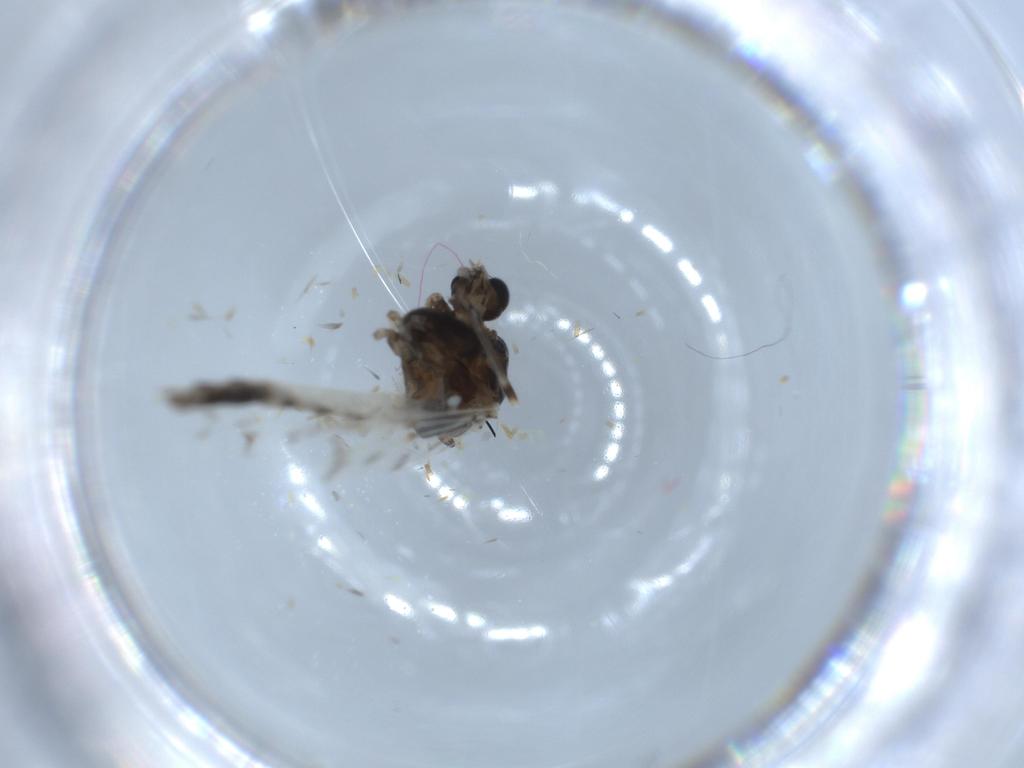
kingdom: Animalia
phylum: Arthropoda
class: Insecta
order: Diptera
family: Chironomidae
